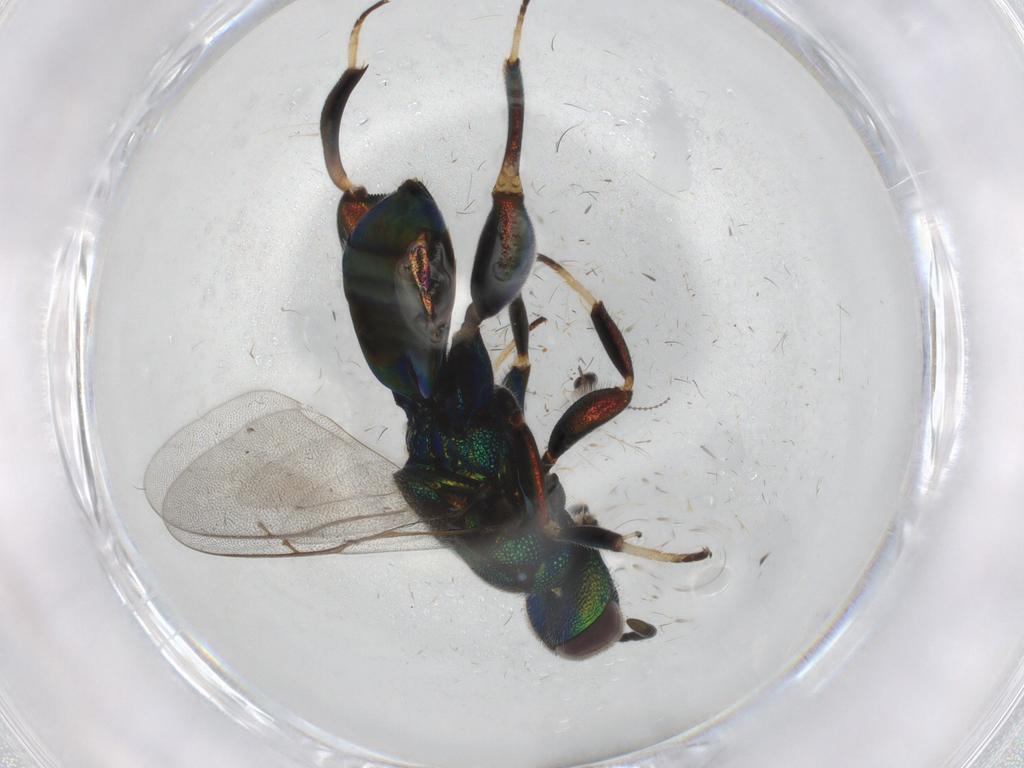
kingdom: Animalia
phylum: Arthropoda
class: Insecta
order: Hymenoptera
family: Pteromalidae
